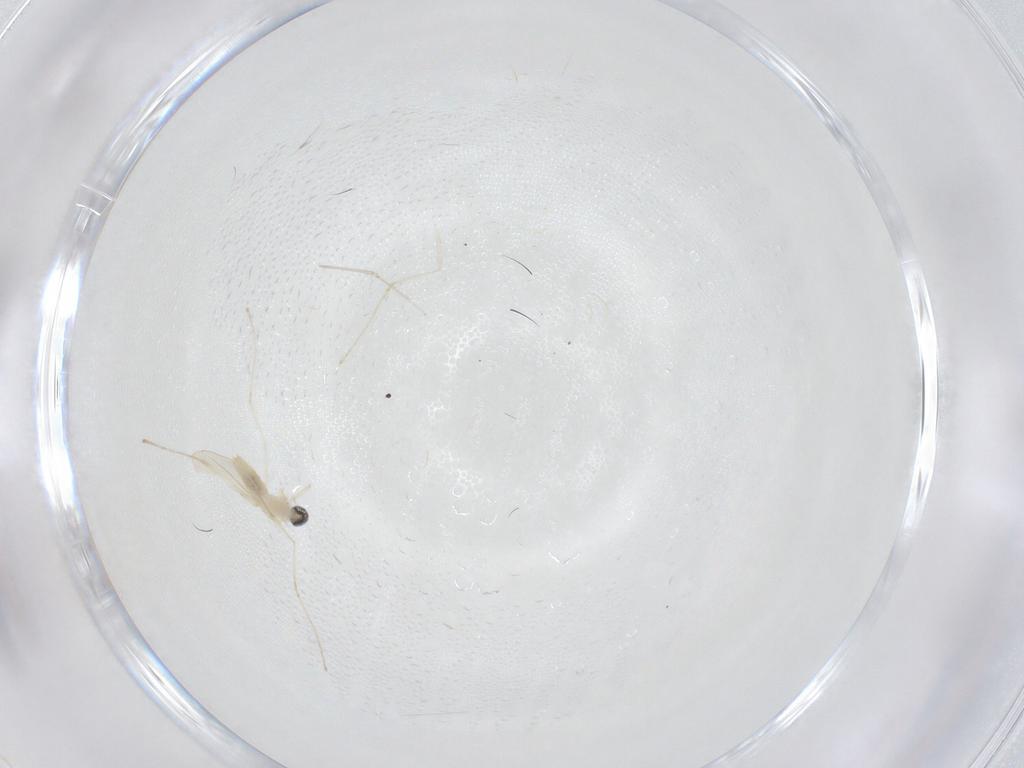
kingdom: Animalia
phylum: Arthropoda
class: Insecta
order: Diptera
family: Cecidomyiidae
